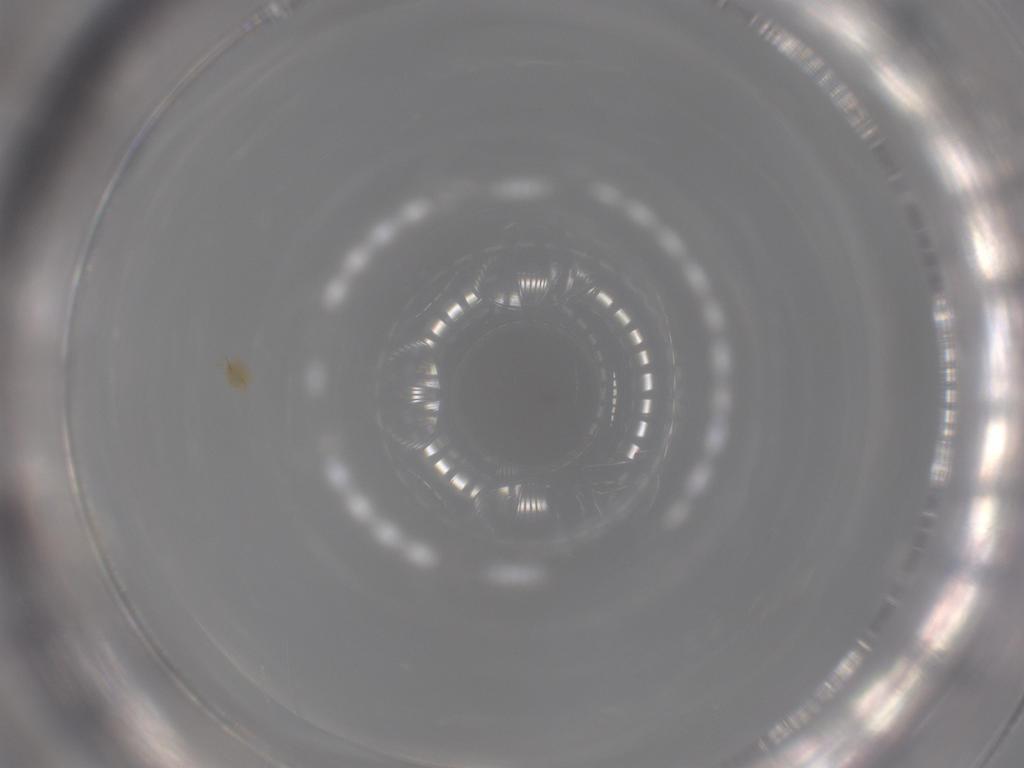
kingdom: Animalia
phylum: Arthropoda
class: Arachnida
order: Trombidiformes
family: Tetranychidae
